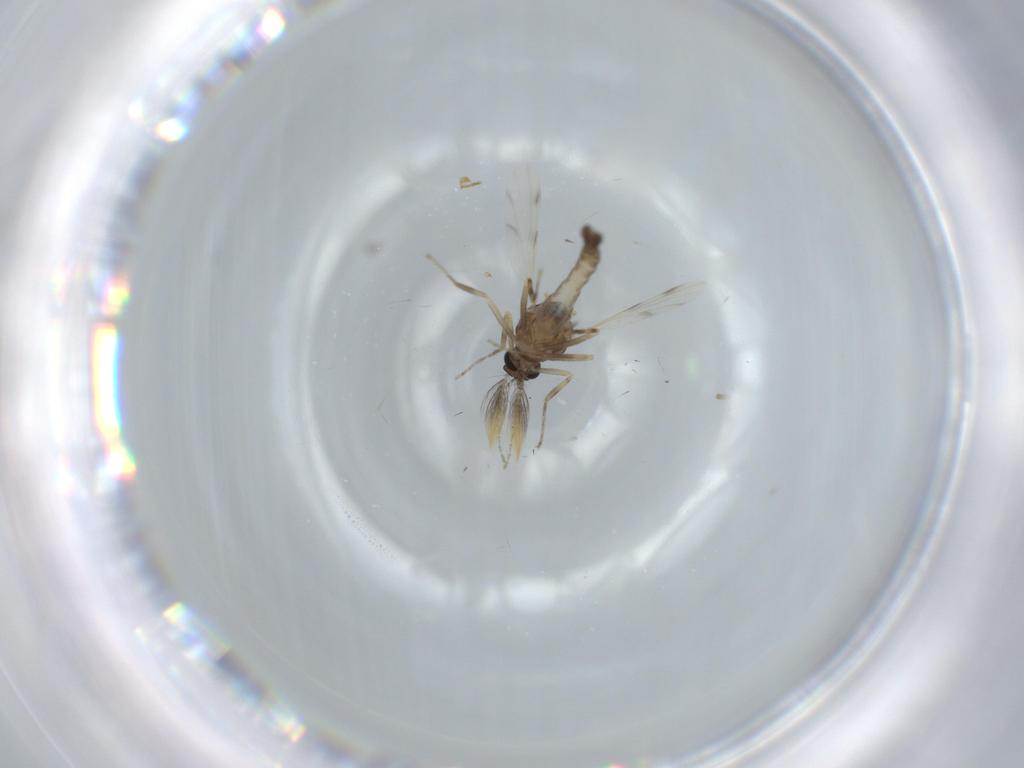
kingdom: Animalia
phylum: Arthropoda
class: Insecta
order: Diptera
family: Ceratopogonidae
